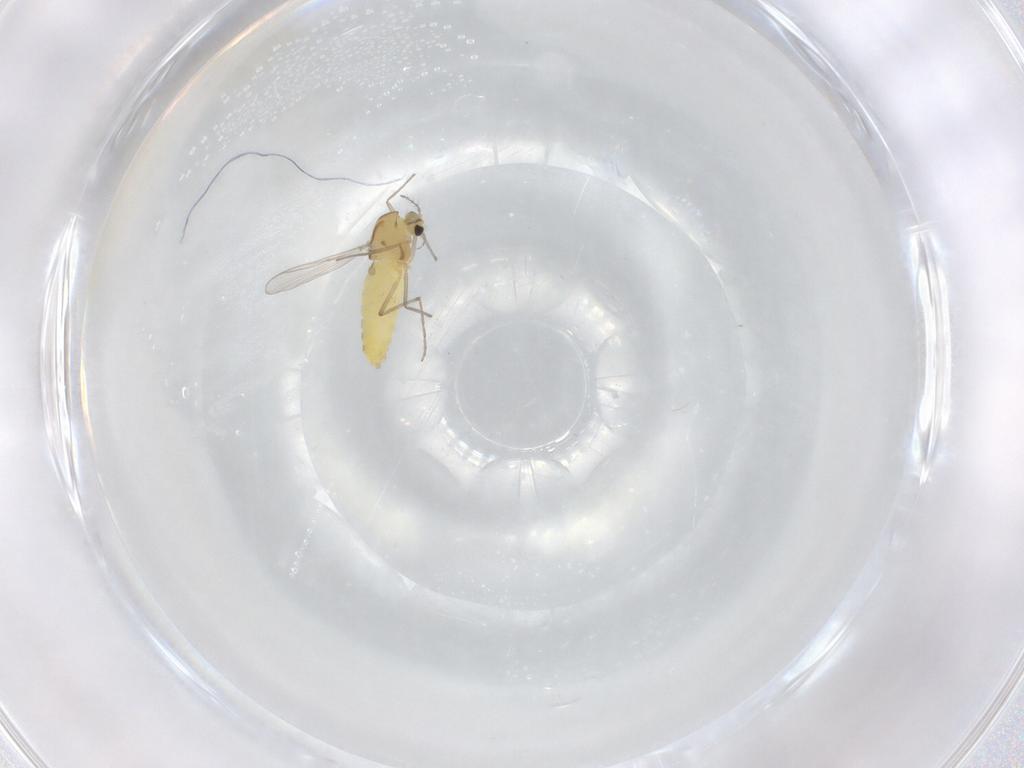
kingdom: Animalia
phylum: Arthropoda
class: Insecta
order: Diptera
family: Chironomidae
